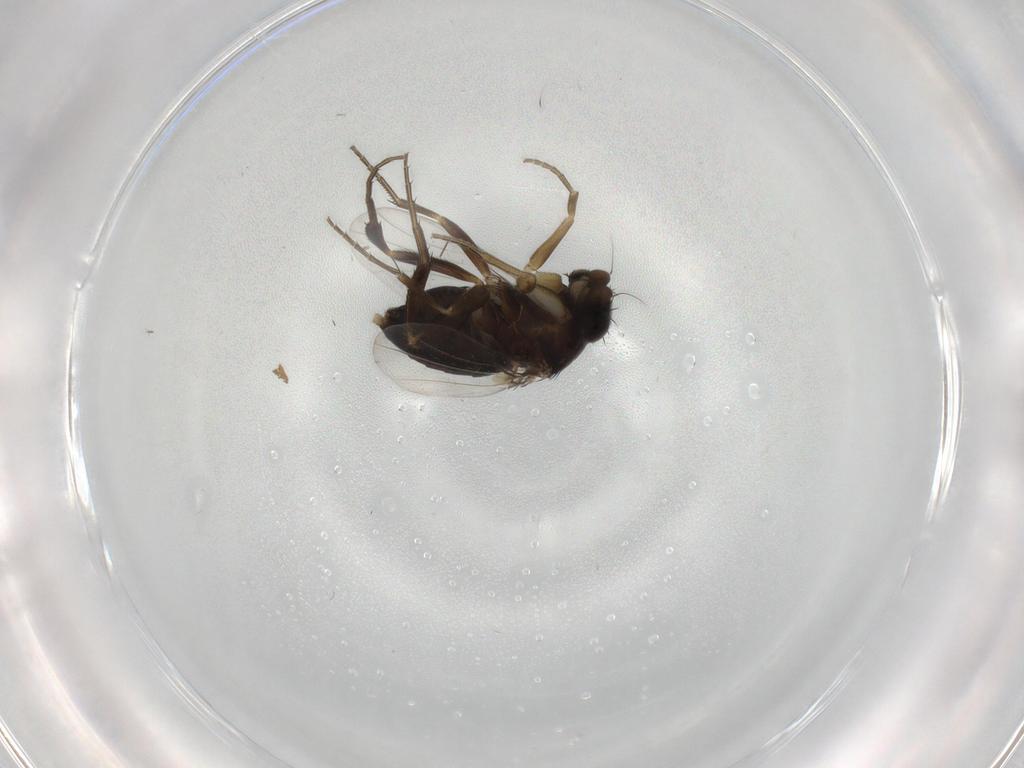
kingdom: Animalia
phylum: Arthropoda
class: Insecta
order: Diptera
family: Phoridae
